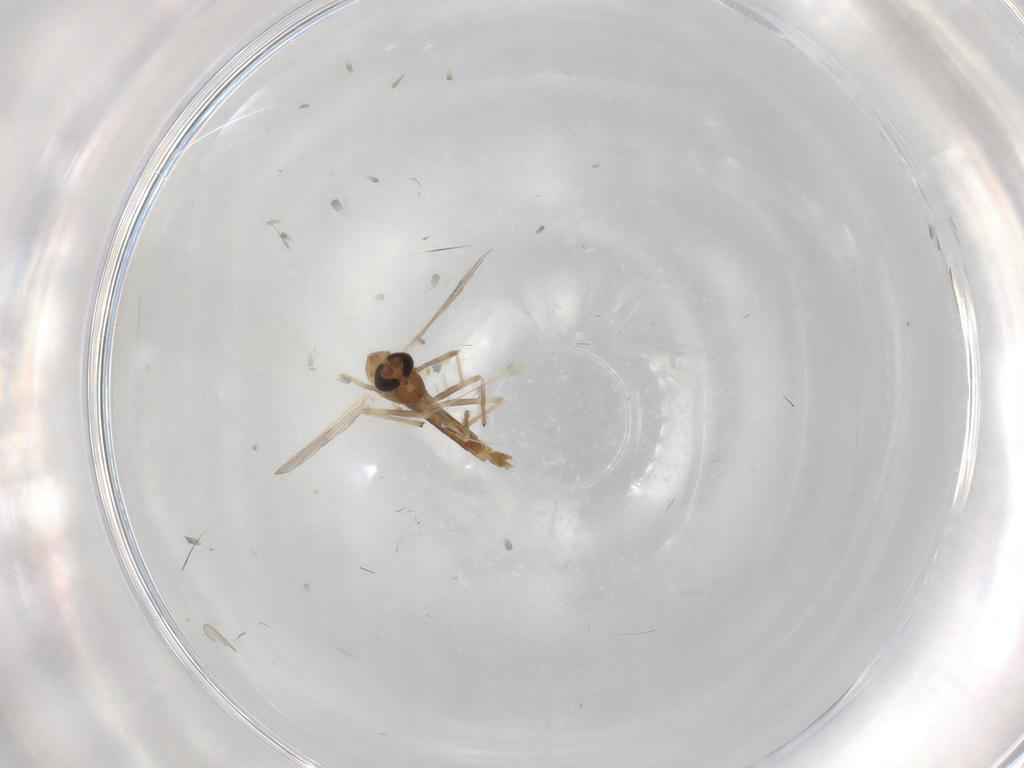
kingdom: Animalia
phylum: Arthropoda
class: Insecta
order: Diptera
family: Chironomidae
